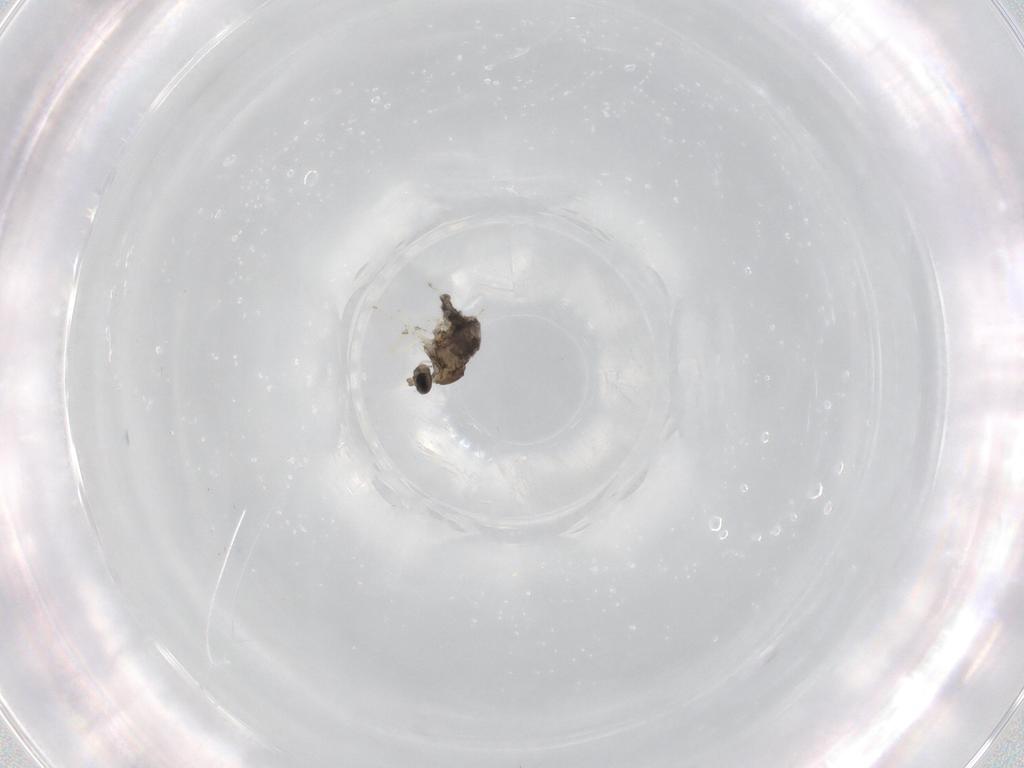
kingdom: Animalia
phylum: Arthropoda
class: Insecta
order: Diptera
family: Cecidomyiidae
